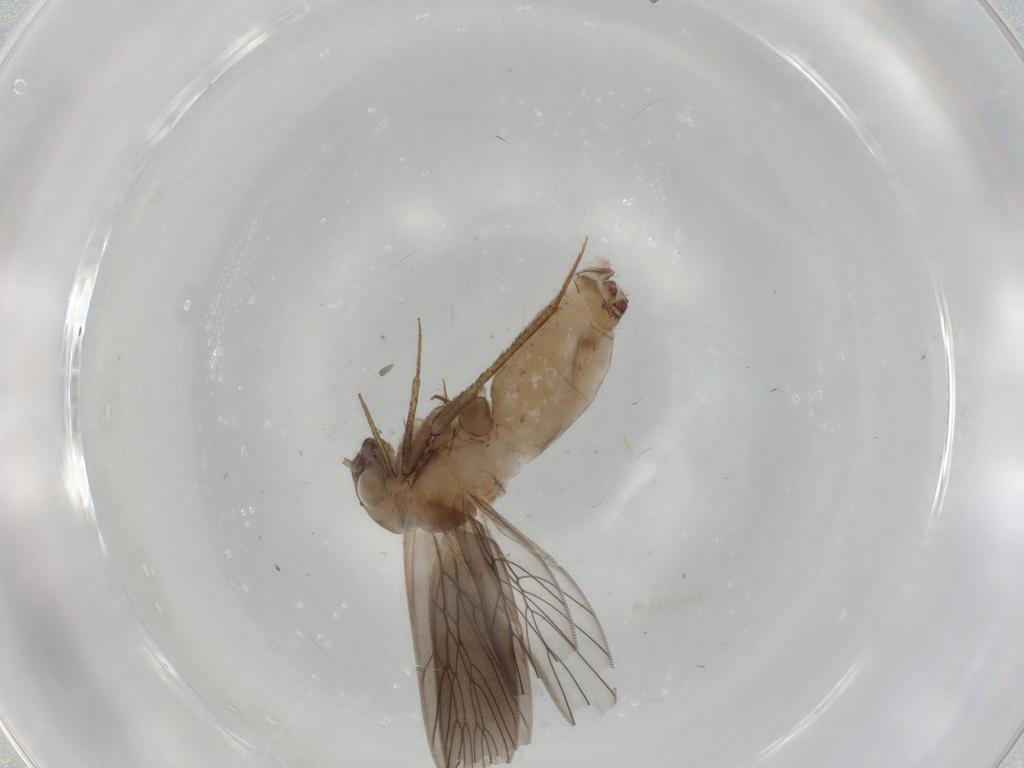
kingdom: Animalia
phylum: Arthropoda
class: Insecta
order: Psocodea
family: Lepidopsocidae
